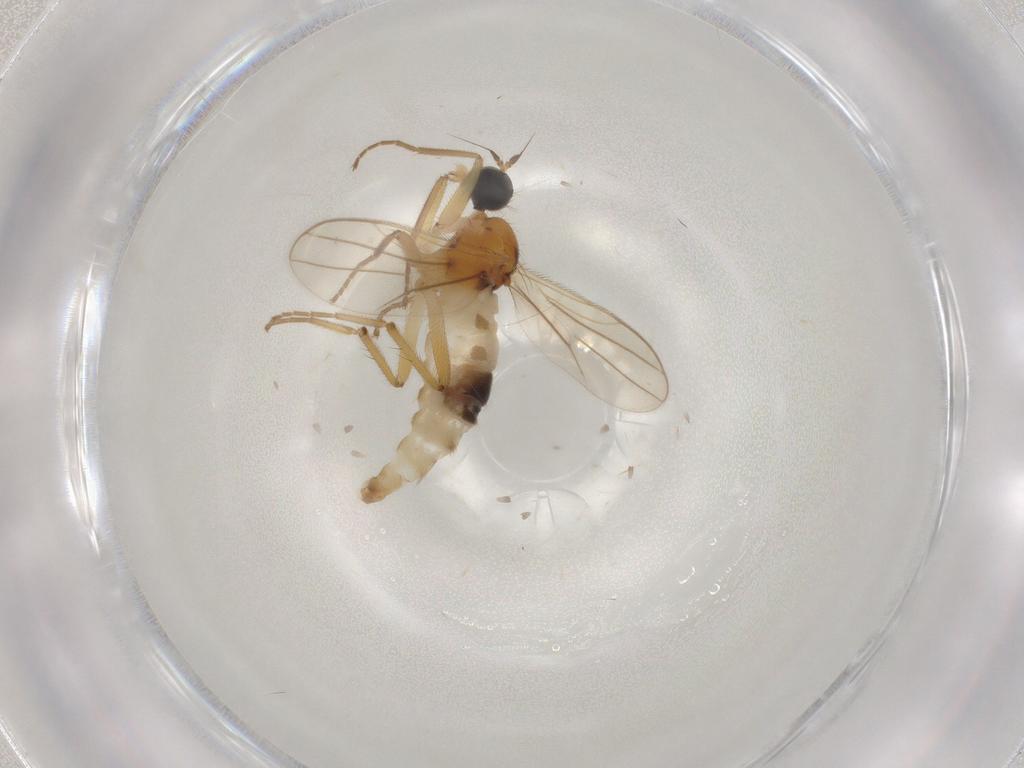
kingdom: Animalia
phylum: Arthropoda
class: Insecta
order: Diptera
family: Hybotidae
